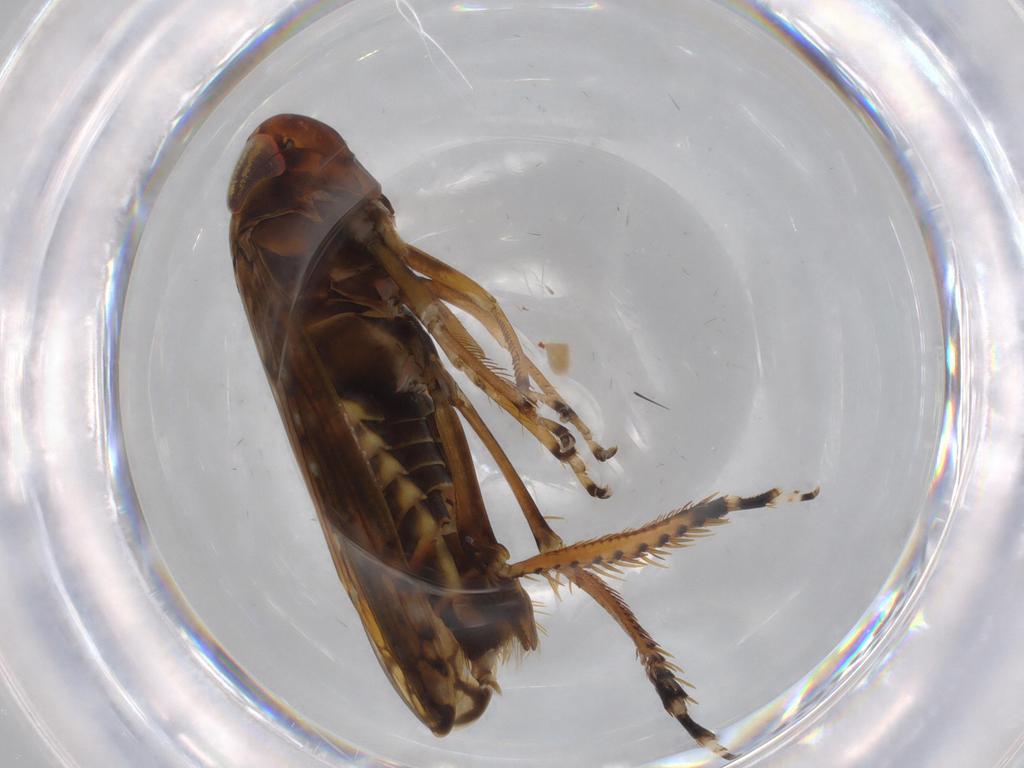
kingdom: Animalia
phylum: Arthropoda
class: Insecta
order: Hemiptera
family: Cicadellidae
